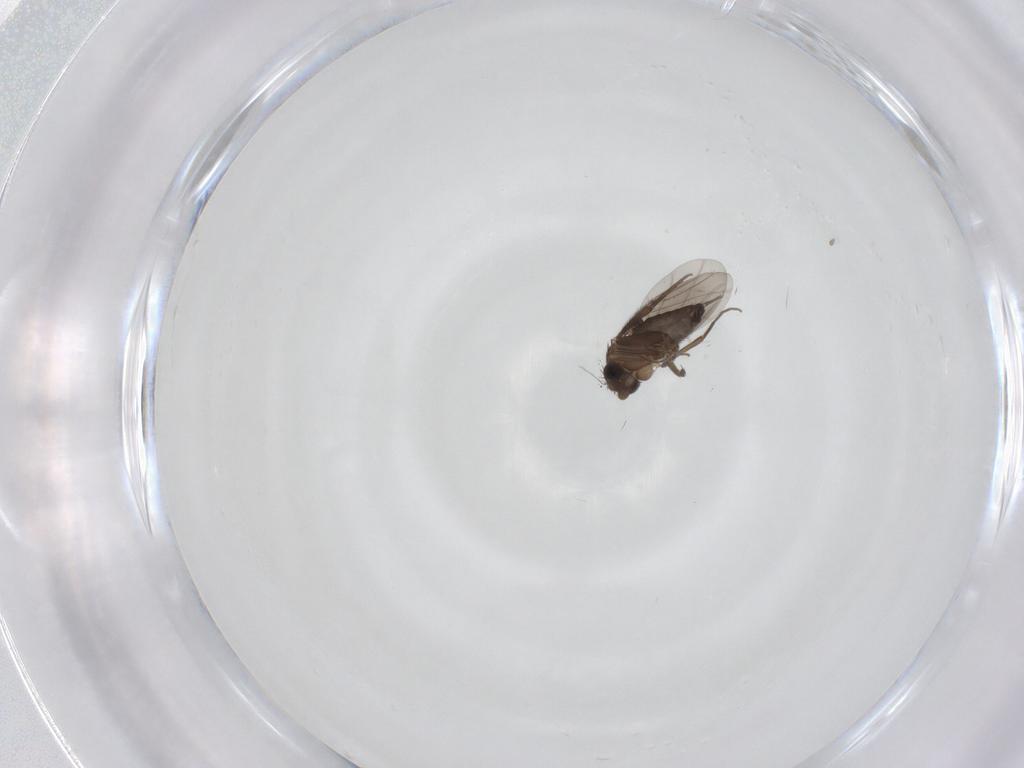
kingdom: Animalia
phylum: Arthropoda
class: Insecta
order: Diptera
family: Phoridae
